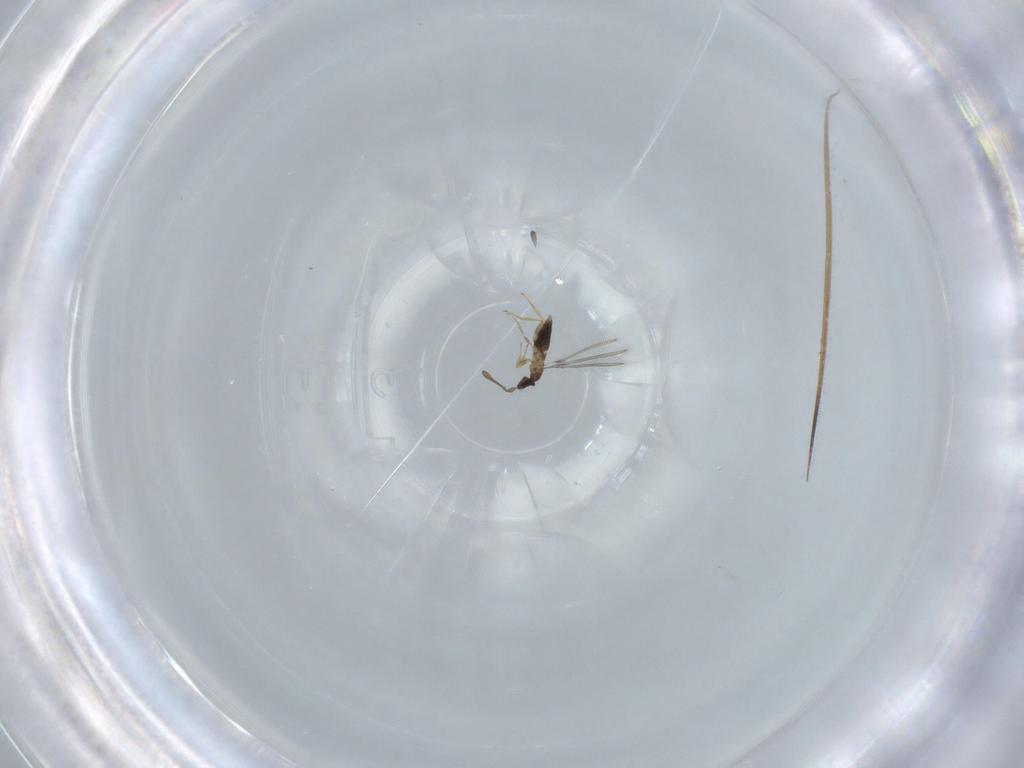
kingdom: Animalia
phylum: Arthropoda
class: Insecta
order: Hymenoptera
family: Mymaridae
